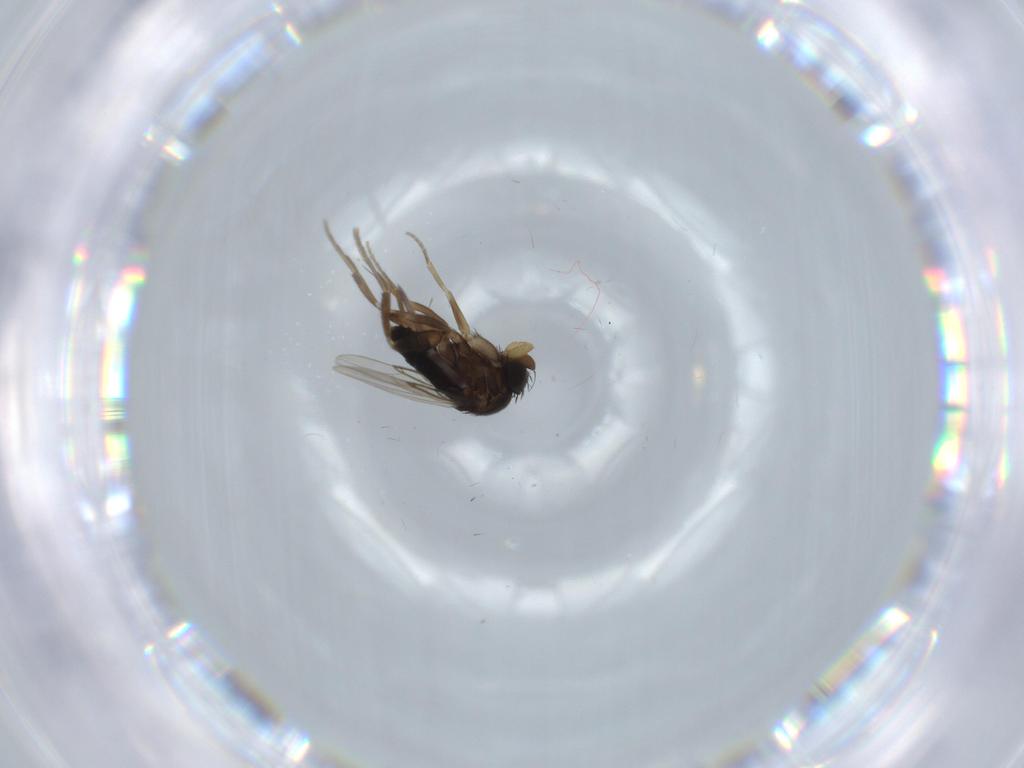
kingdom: Animalia
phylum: Arthropoda
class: Insecta
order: Diptera
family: Phoridae
